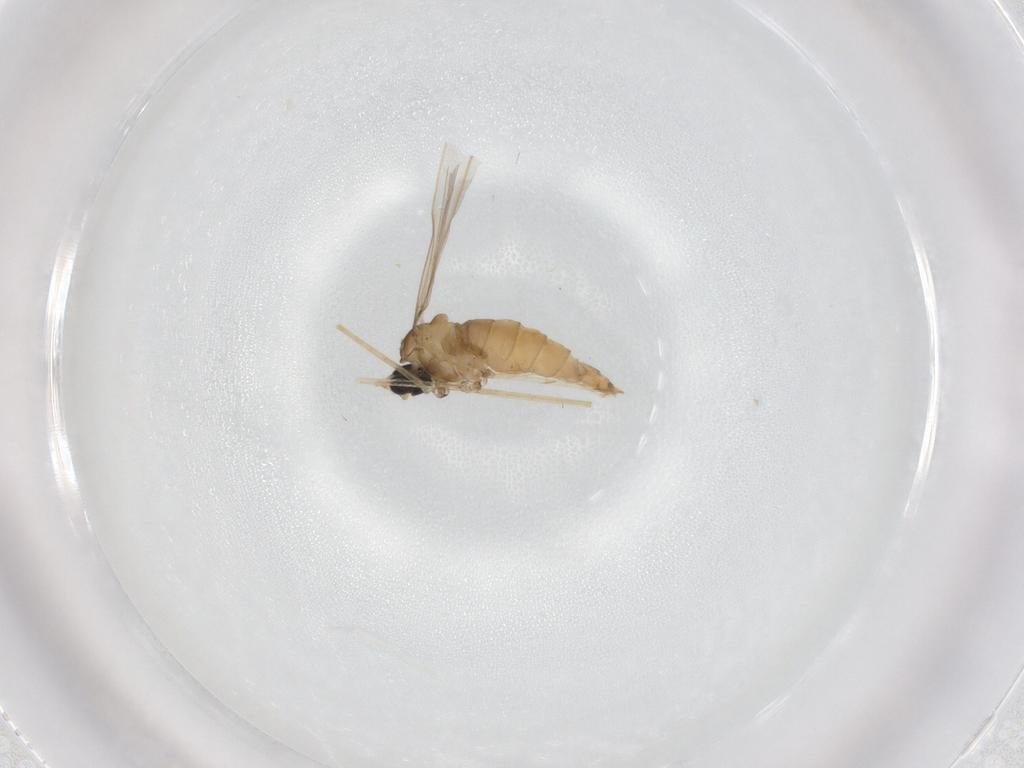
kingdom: Animalia
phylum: Arthropoda
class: Insecta
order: Diptera
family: Cecidomyiidae
